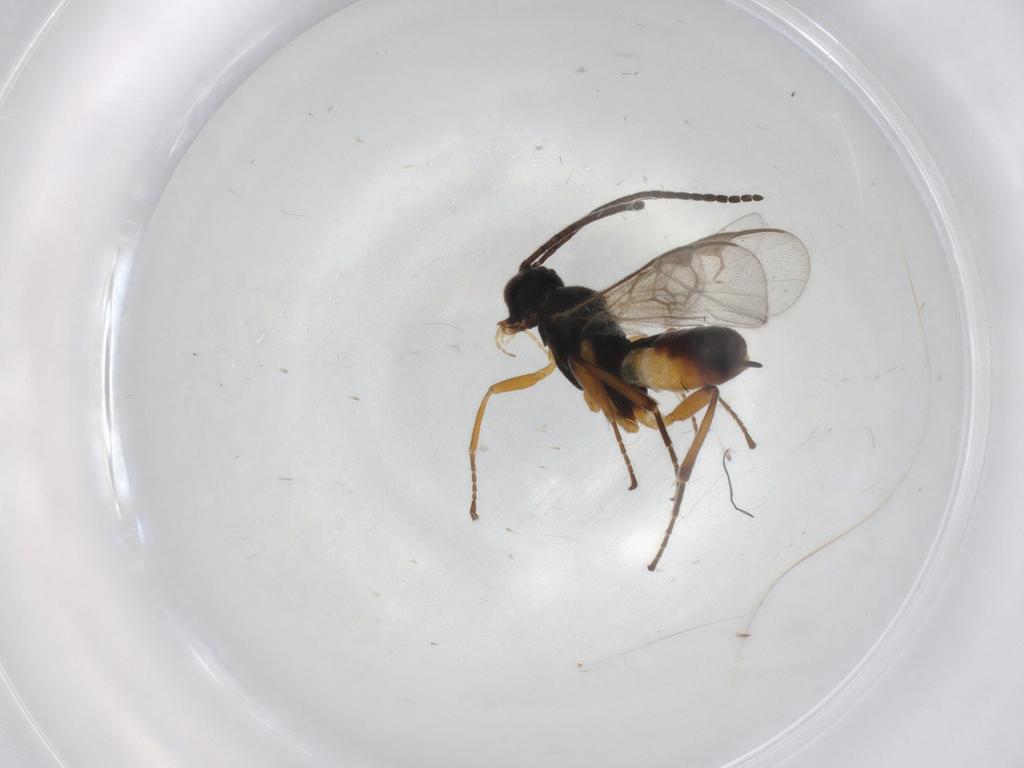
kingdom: Animalia
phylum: Arthropoda
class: Insecta
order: Hymenoptera
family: Braconidae
